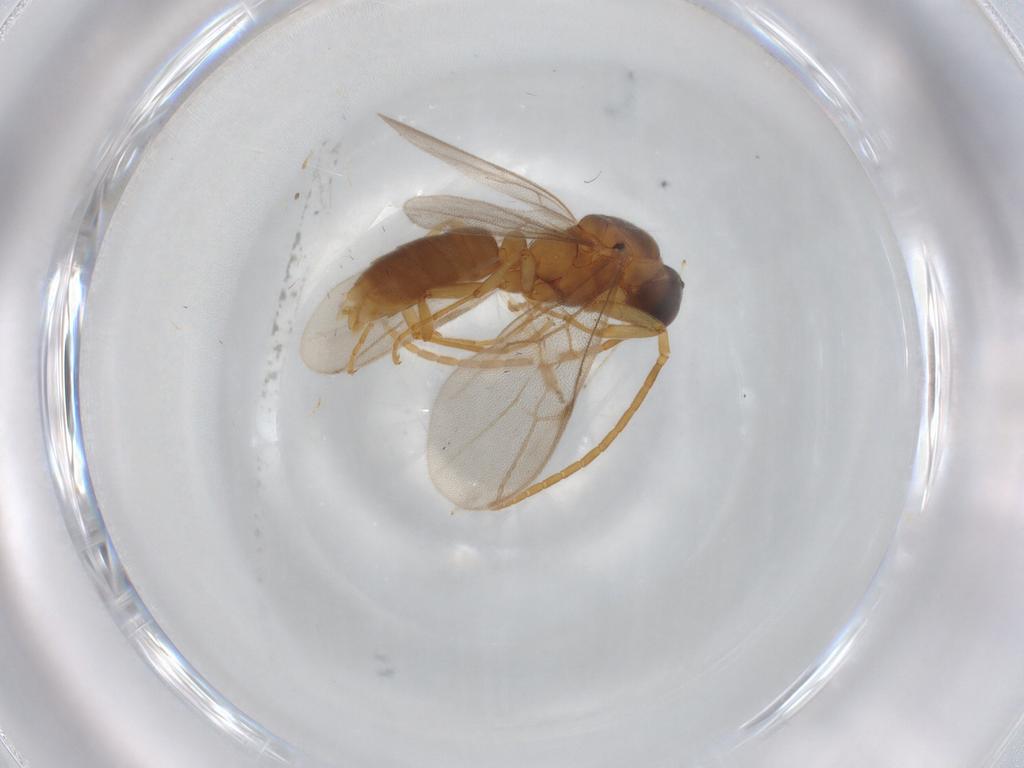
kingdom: Animalia
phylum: Arthropoda
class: Insecta
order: Hymenoptera
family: Formicidae
